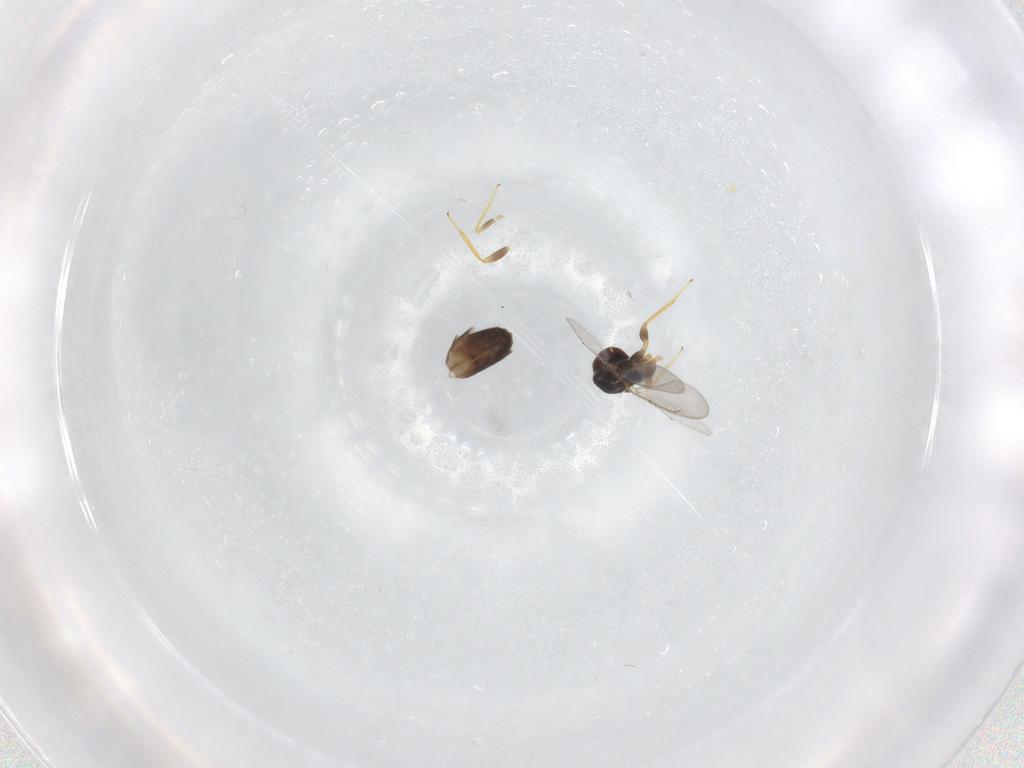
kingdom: Animalia
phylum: Arthropoda
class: Insecta
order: Hymenoptera
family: Eulophidae
